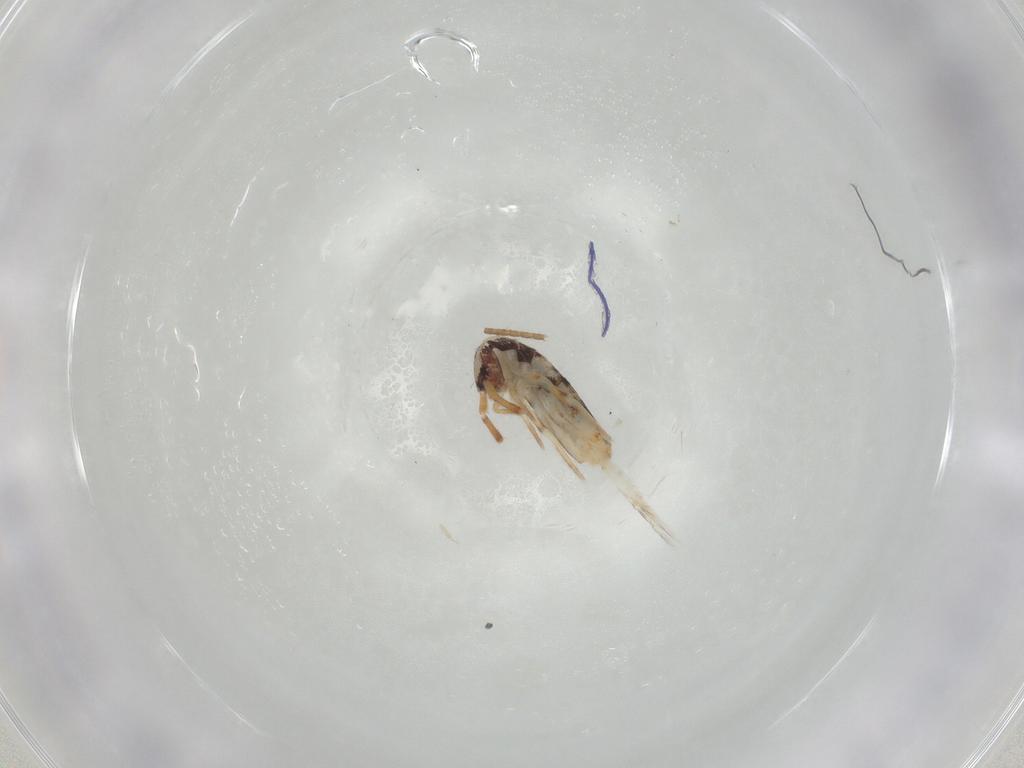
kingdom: Animalia
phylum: Arthropoda
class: Collembola
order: Entomobryomorpha
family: Entomobryidae
